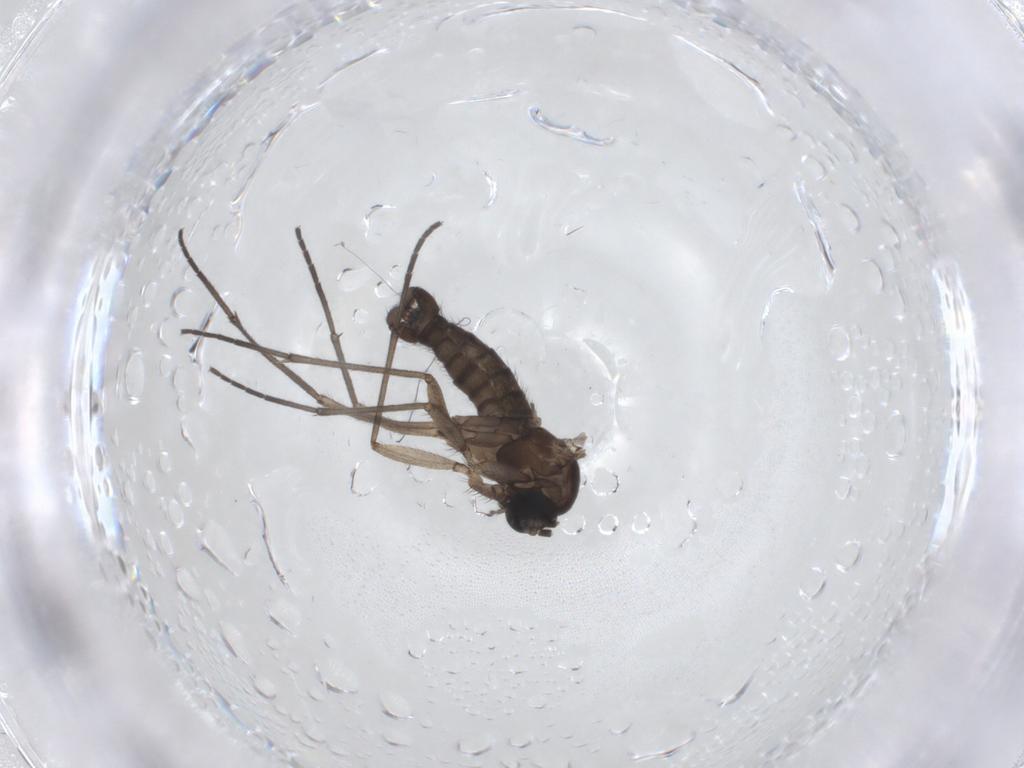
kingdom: Animalia
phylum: Arthropoda
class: Insecta
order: Diptera
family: Sciaridae
